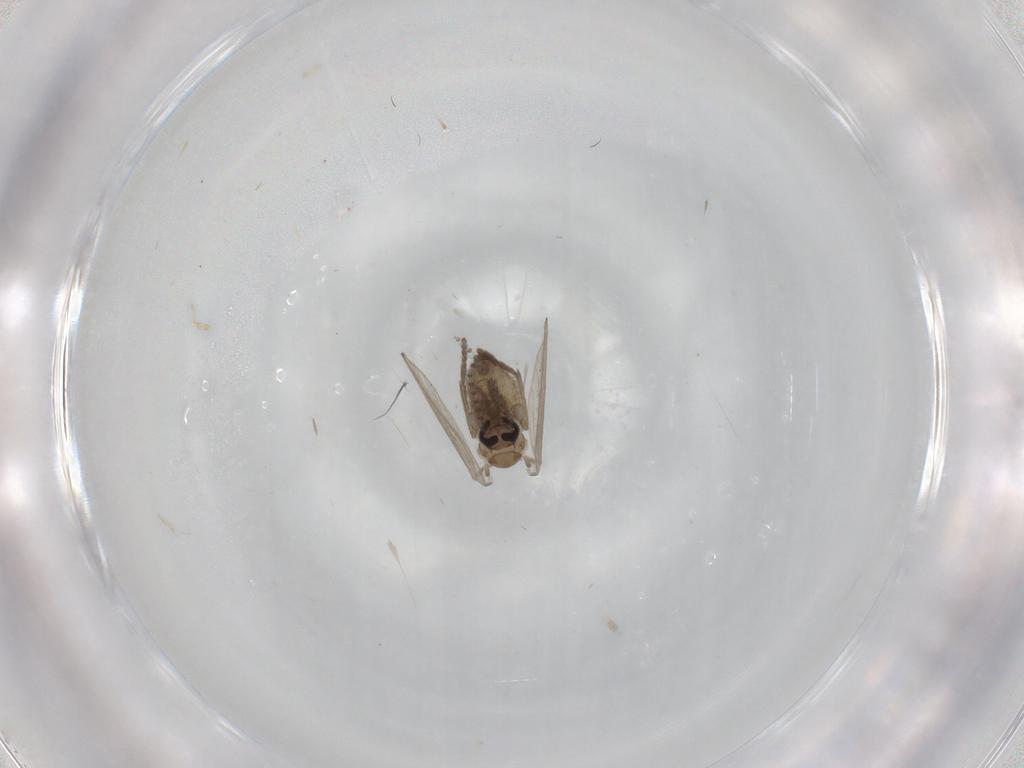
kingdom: Animalia
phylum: Arthropoda
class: Insecta
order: Diptera
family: Psychodidae
